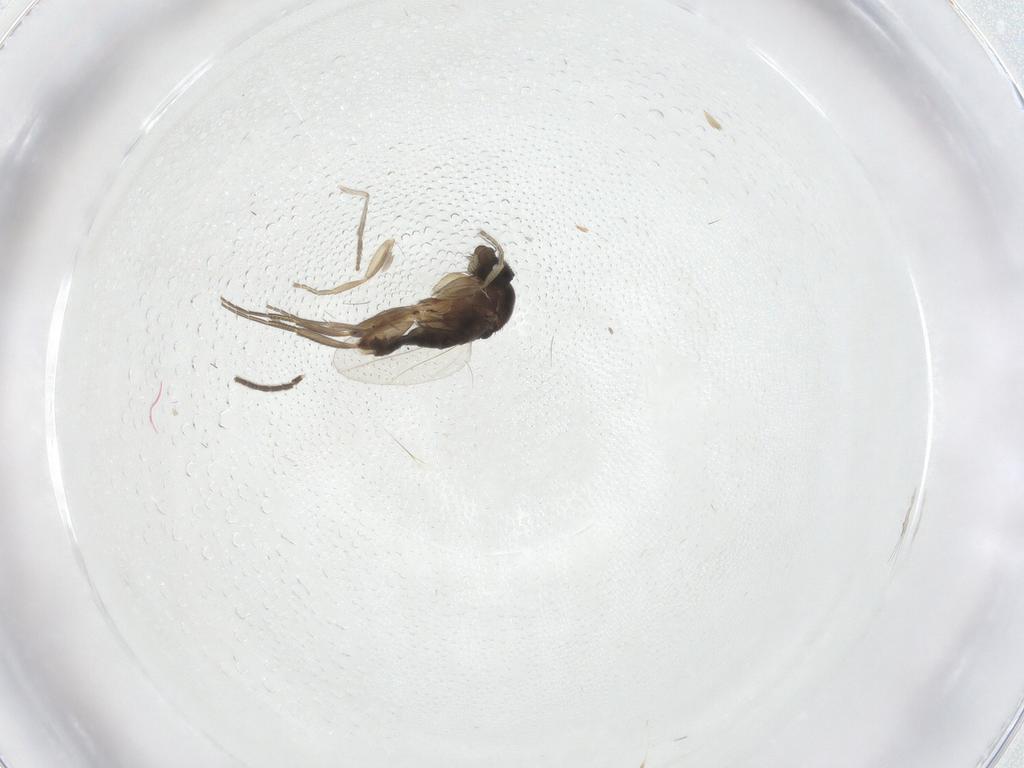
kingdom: Animalia
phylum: Arthropoda
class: Insecta
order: Diptera
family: Phoridae
